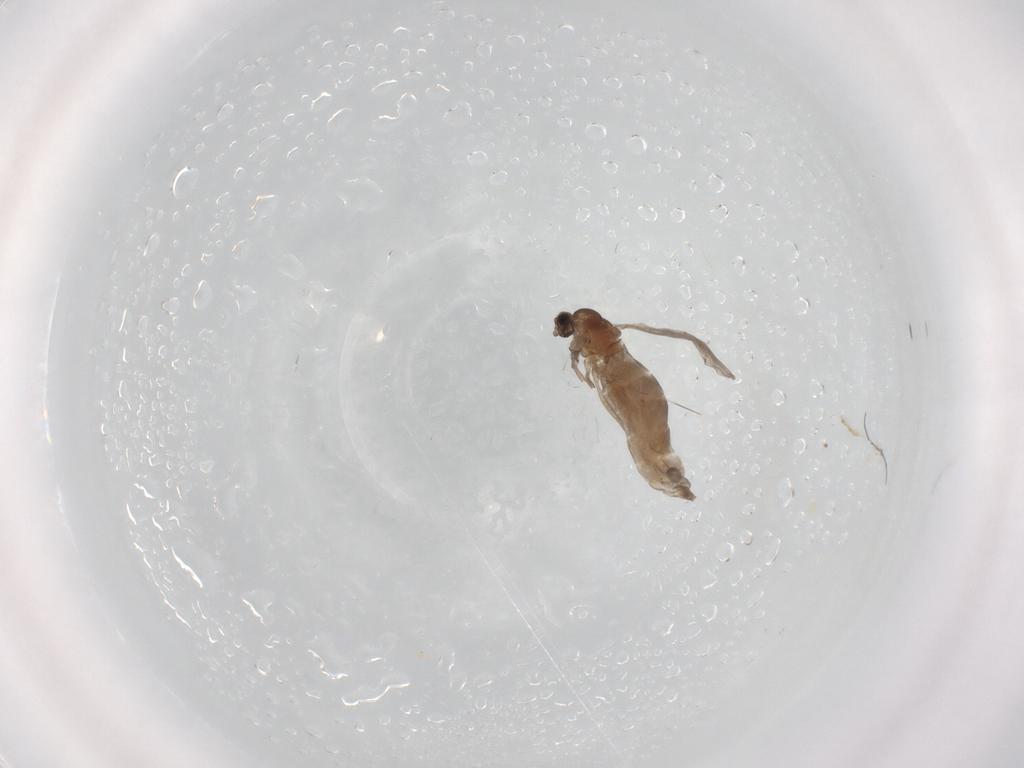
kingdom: Animalia
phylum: Arthropoda
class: Insecta
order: Diptera
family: Cecidomyiidae
